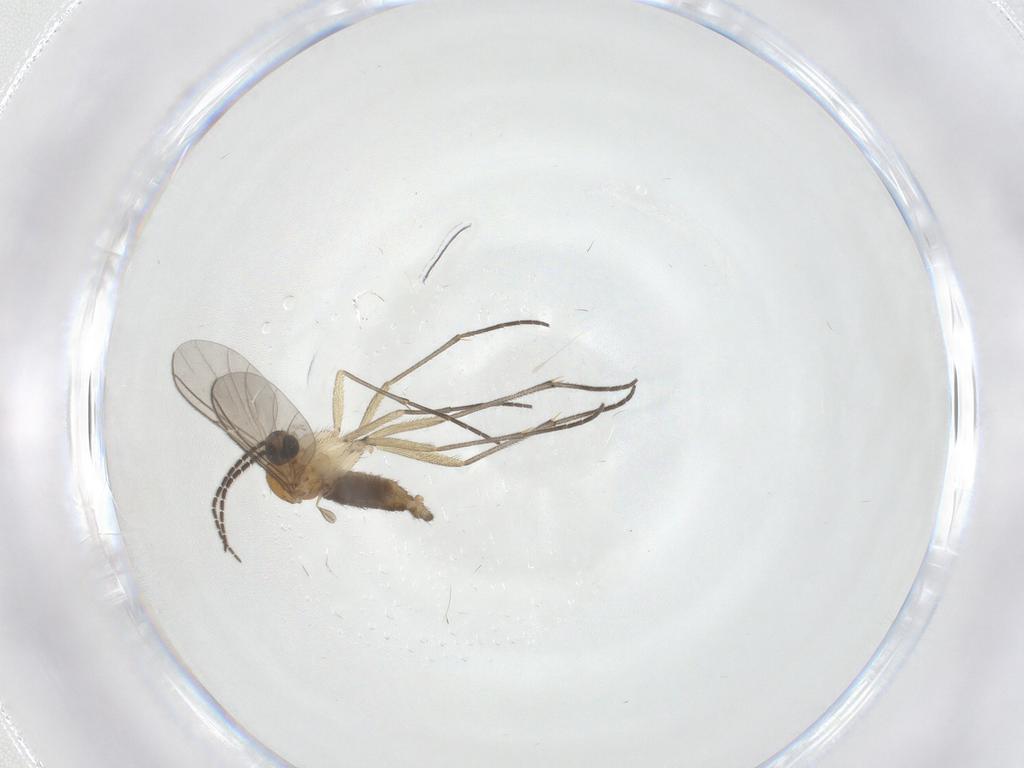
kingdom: Animalia
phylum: Arthropoda
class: Insecta
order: Diptera
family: Sciaridae
